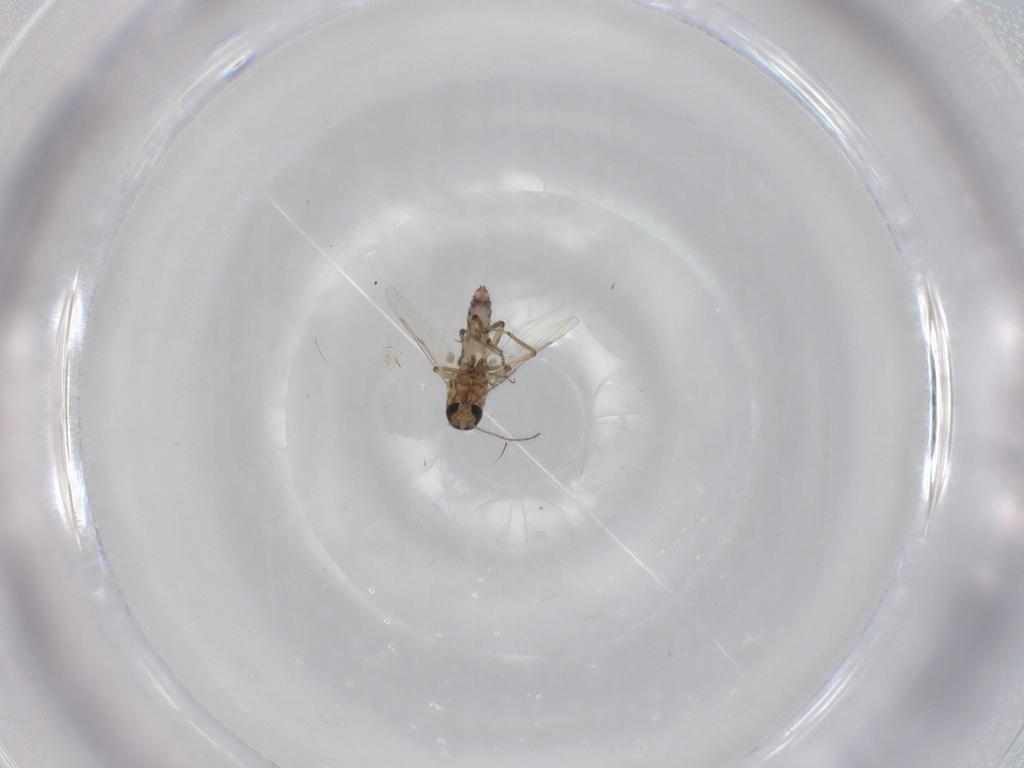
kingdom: Animalia
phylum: Arthropoda
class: Insecta
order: Diptera
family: Ceratopogonidae
